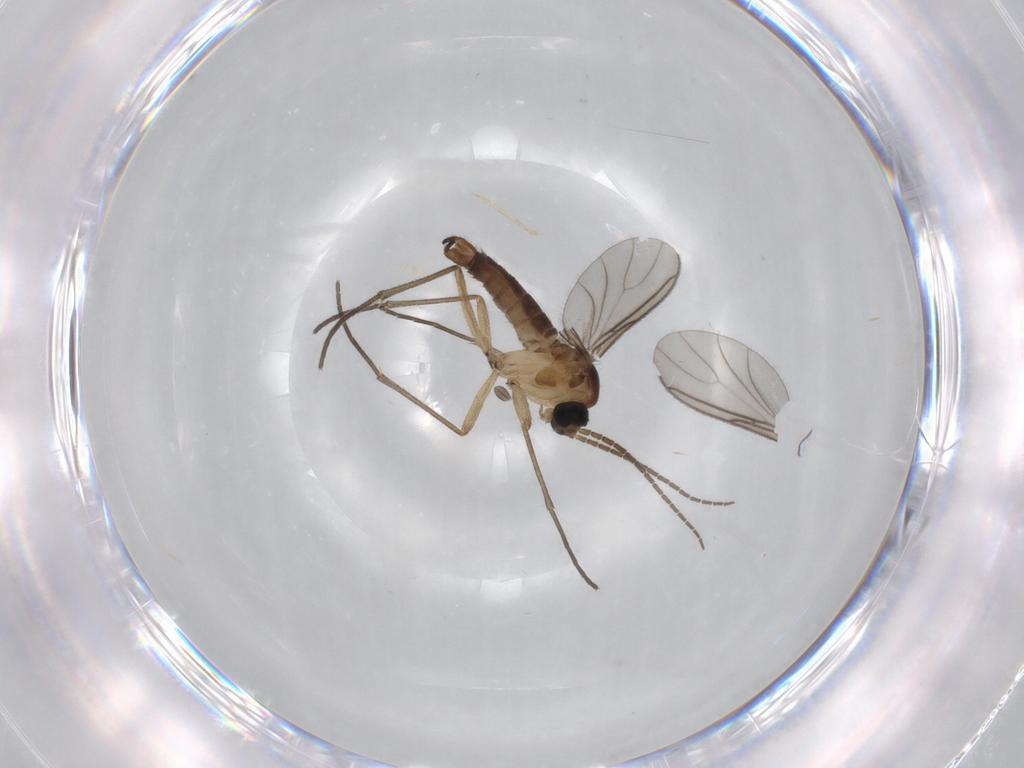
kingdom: Animalia
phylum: Arthropoda
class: Insecta
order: Diptera
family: Sciaridae
